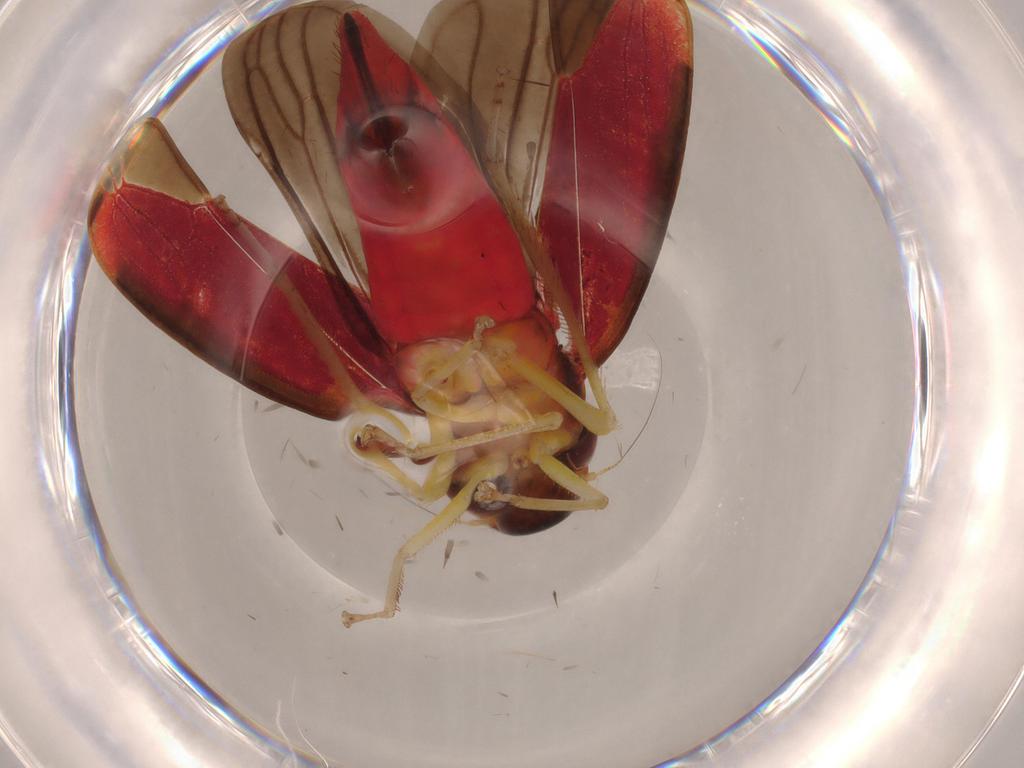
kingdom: Animalia
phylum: Arthropoda
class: Insecta
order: Hemiptera
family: Cicadellidae
